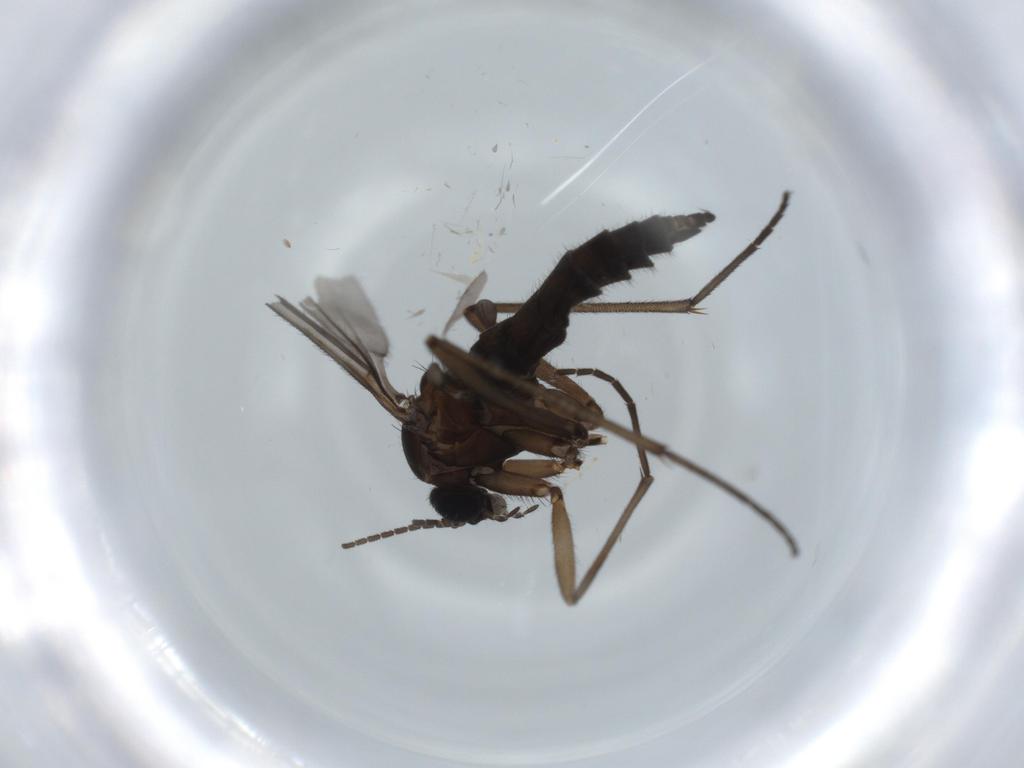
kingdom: Animalia
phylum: Arthropoda
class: Insecta
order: Diptera
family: Sciaridae
